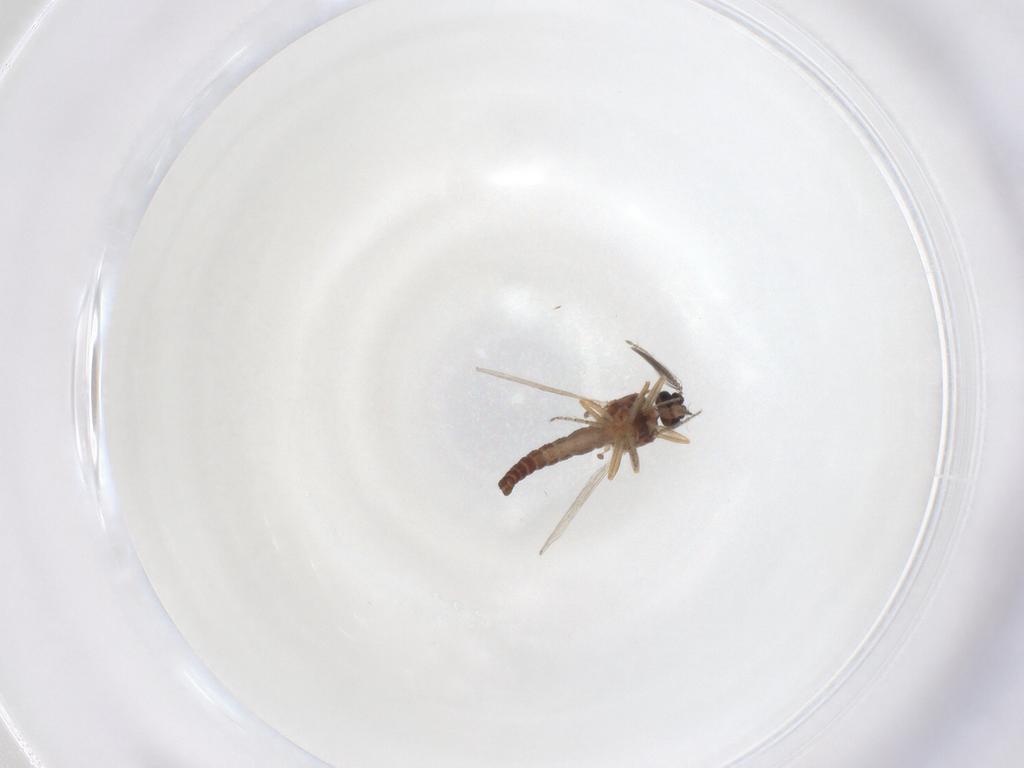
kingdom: Animalia
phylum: Arthropoda
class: Insecta
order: Diptera
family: Ceratopogonidae
